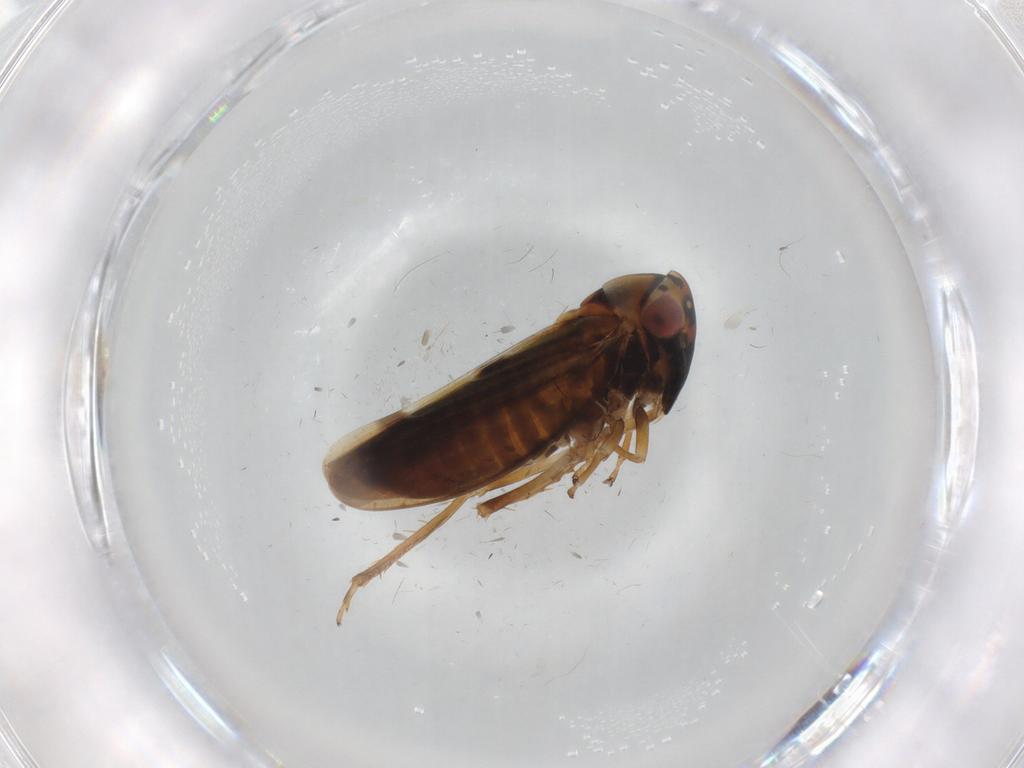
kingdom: Animalia
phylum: Arthropoda
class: Insecta
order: Hemiptera
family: Cicadellidae
